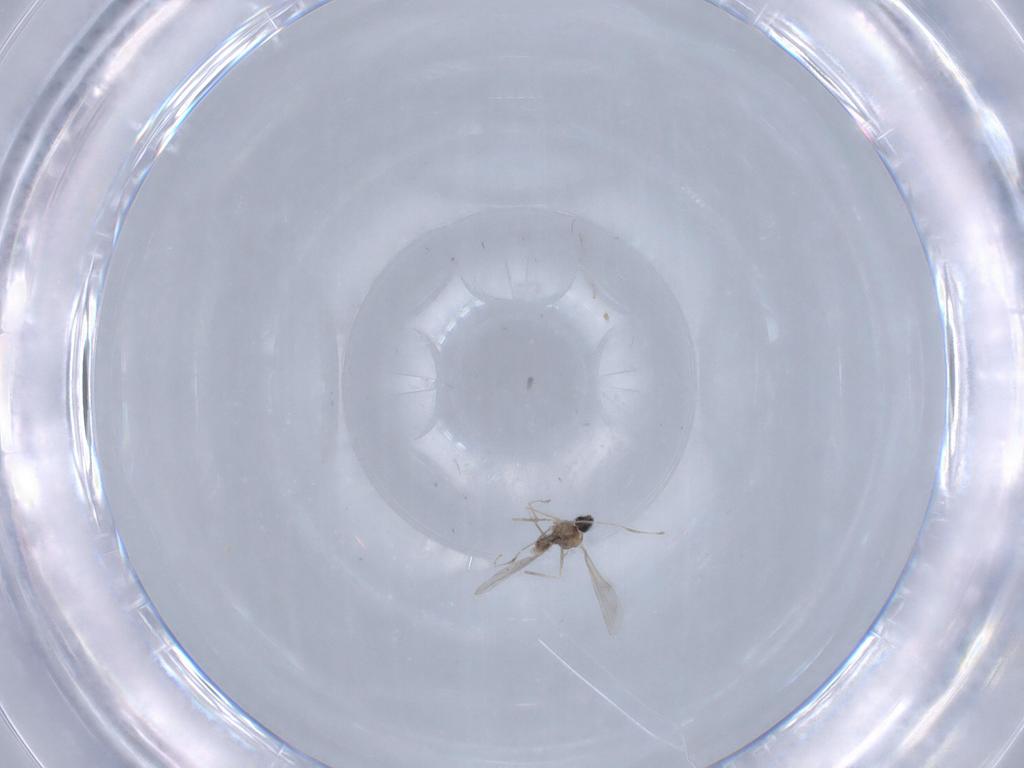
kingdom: Animalia
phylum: Arthropoda
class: Insecta
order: Diptera
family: Cecidomyiidae
